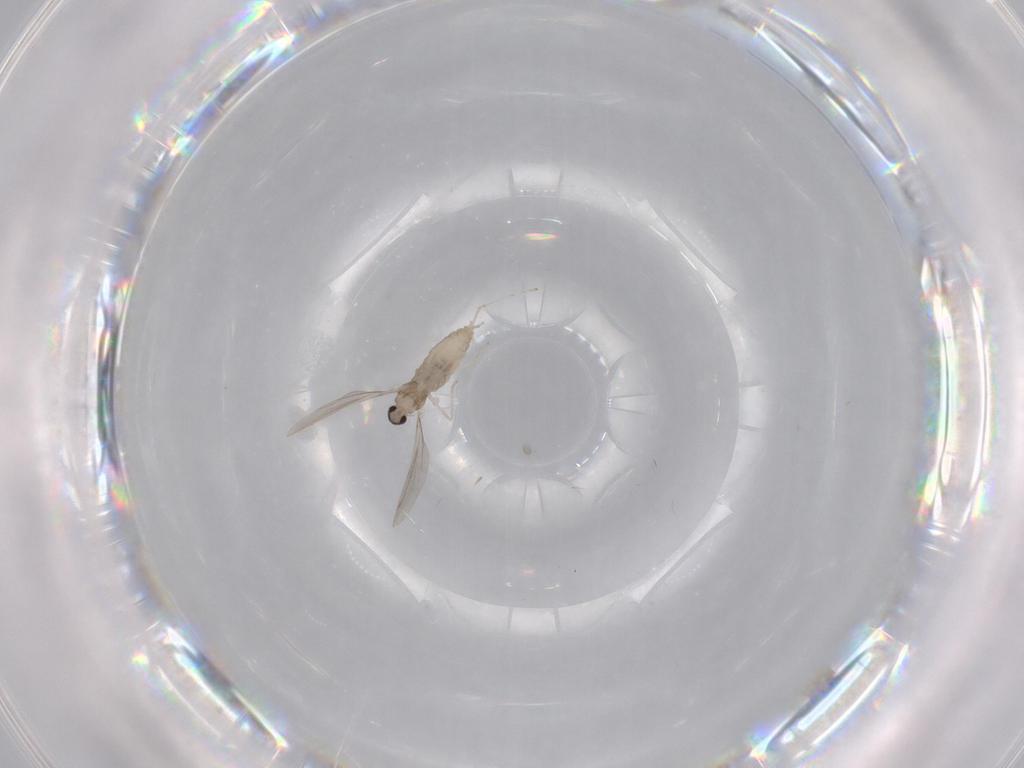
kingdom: Animalia
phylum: Arthropoda
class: Insecta
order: Diptera
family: Cecidomyiidae
